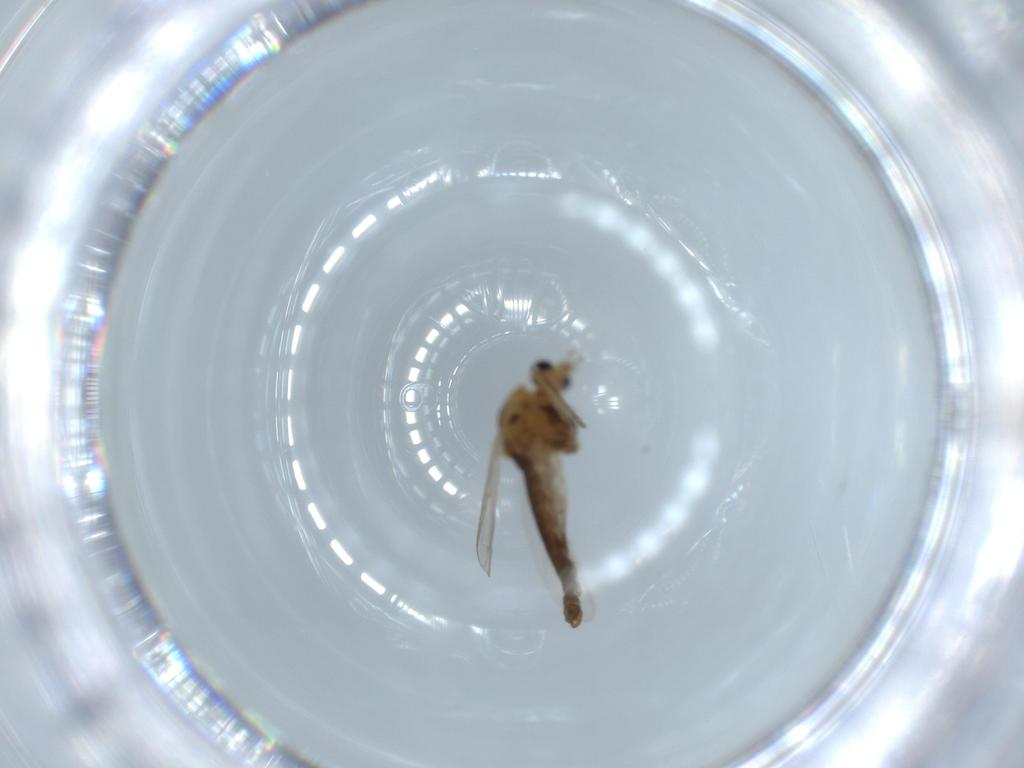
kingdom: Animalia
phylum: Arthropoda
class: Insecta
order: Diptera
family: Chironomidae
